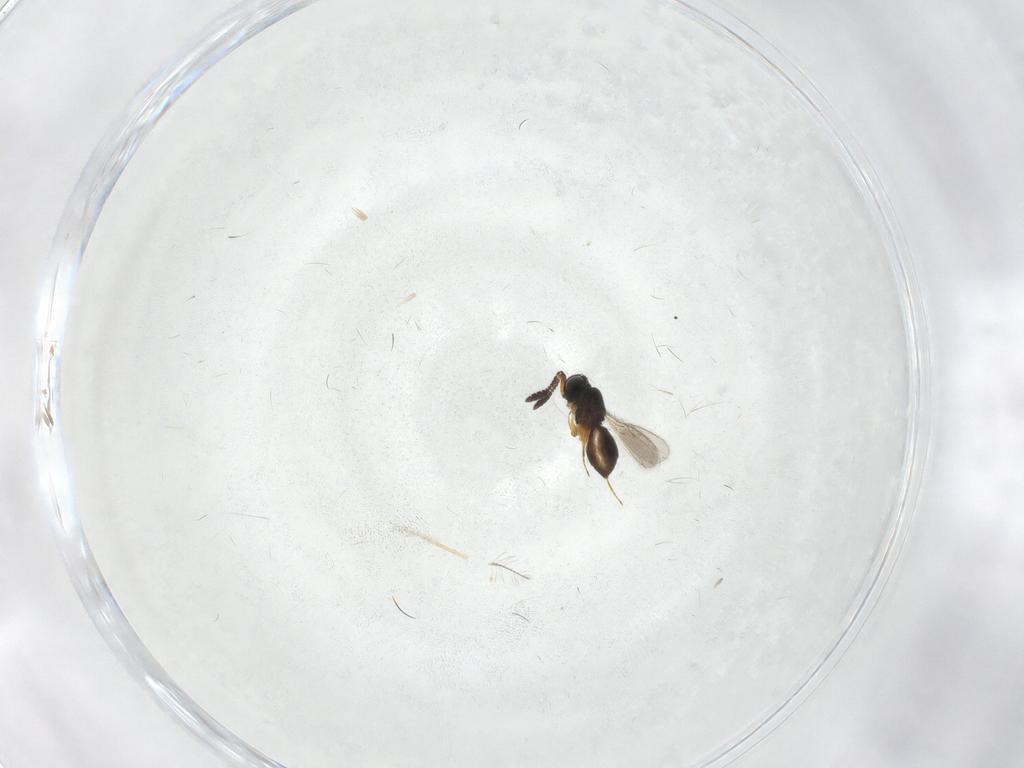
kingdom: Animalia
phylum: Arthropoda
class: Insecta
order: Hymenoptera
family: Scelionidae
